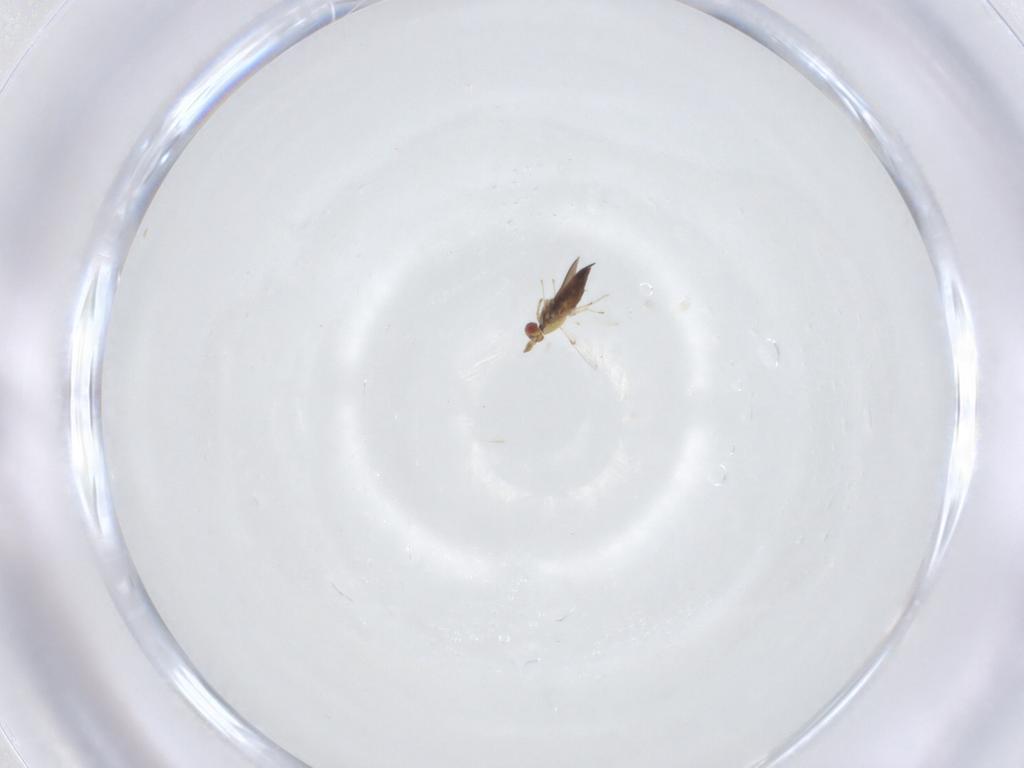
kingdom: Animalia
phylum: Arthropoda
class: Insecta
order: Hymenoptera
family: Trichogrammatidae
